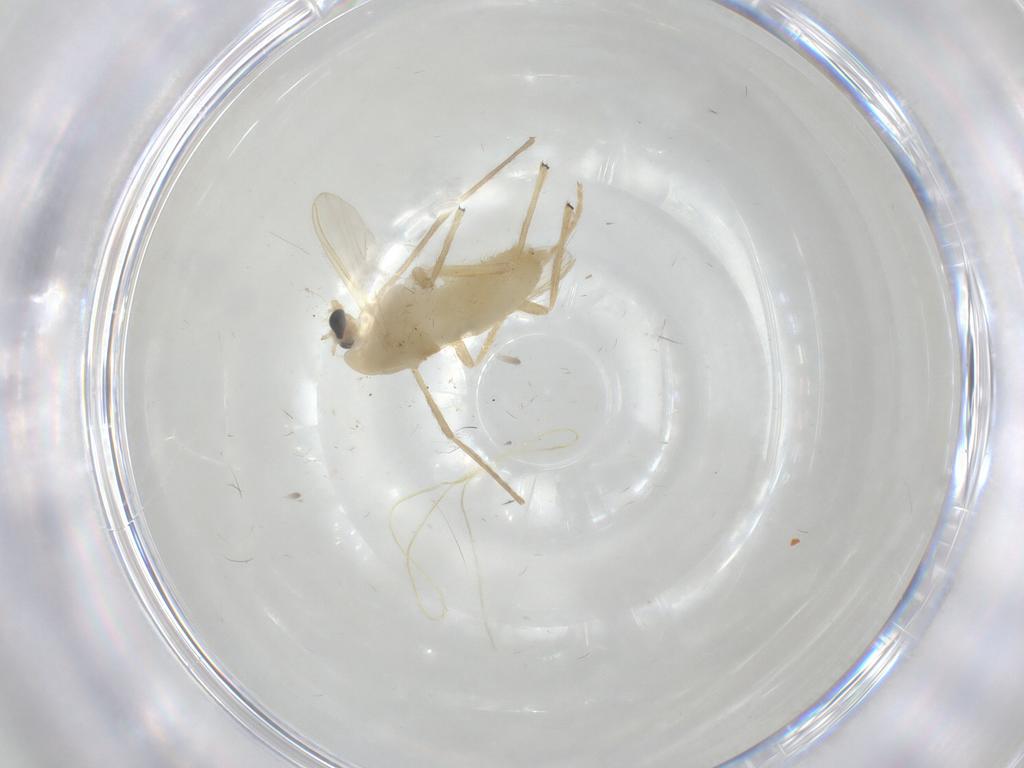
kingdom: Animalia
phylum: Arthropoda
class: Insecta
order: Diptera
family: Chironomidae
